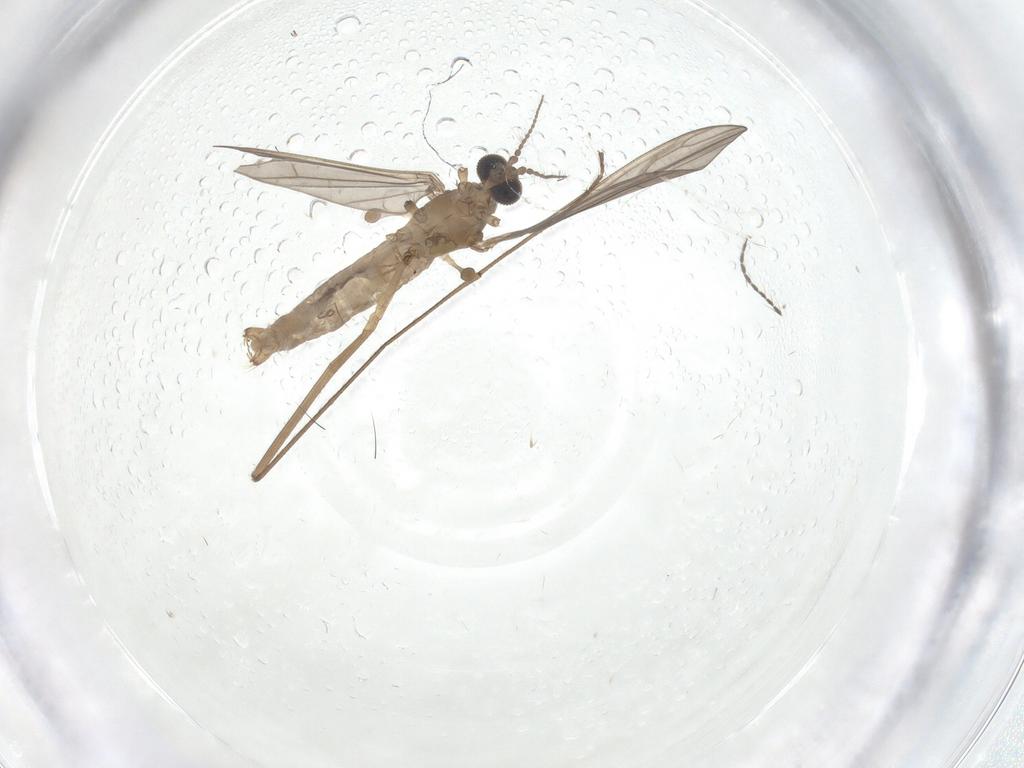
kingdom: Animalia
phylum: Arthropoda
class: Insecta
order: Diptera
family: Limoniidae
